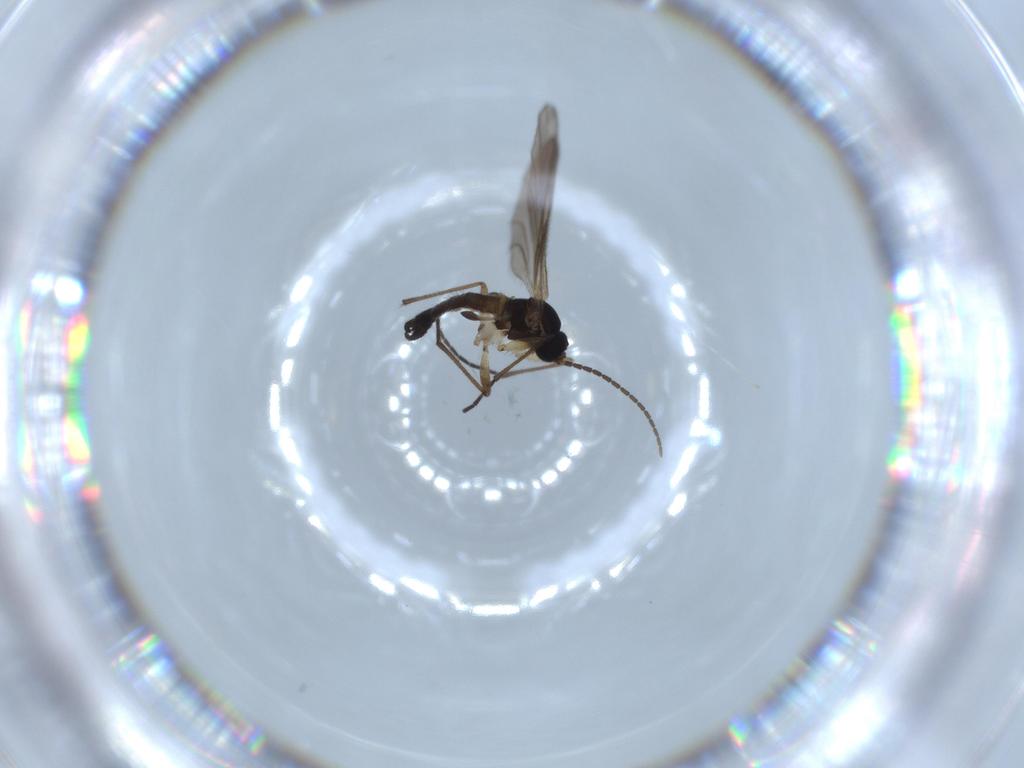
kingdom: Animalia
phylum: Arthropoda
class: Insecta
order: Diptera
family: Sciaridae
